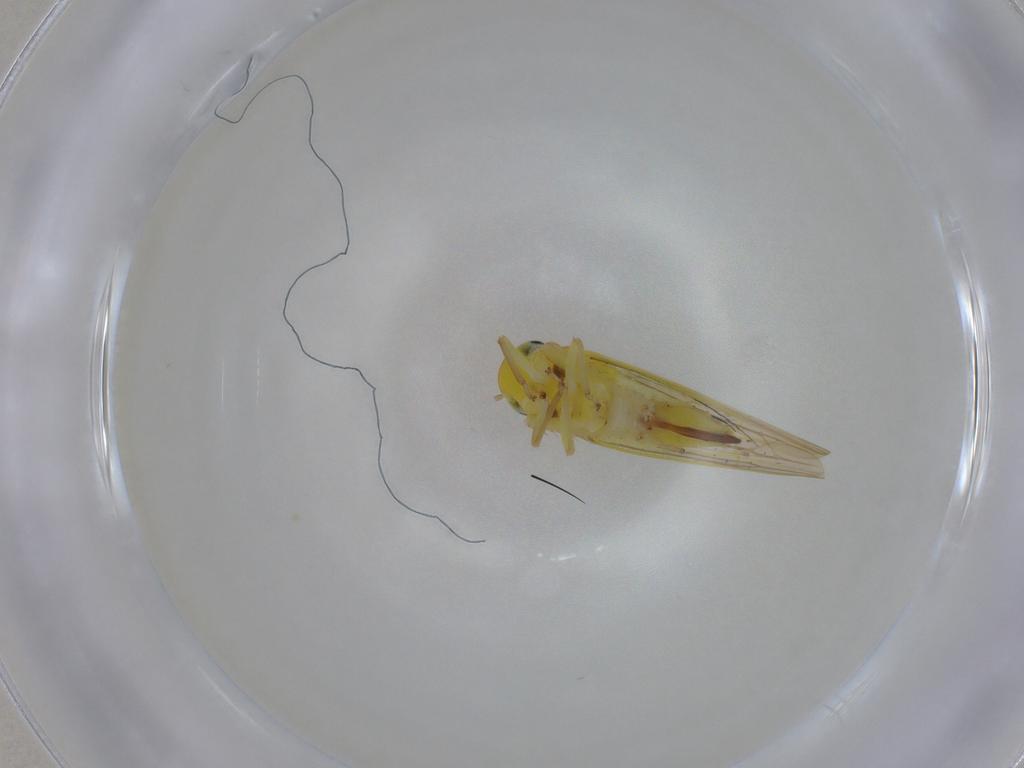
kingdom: Animalia
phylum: Arthropoda
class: Insecta
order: Hemiptera
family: Cicadellidae
